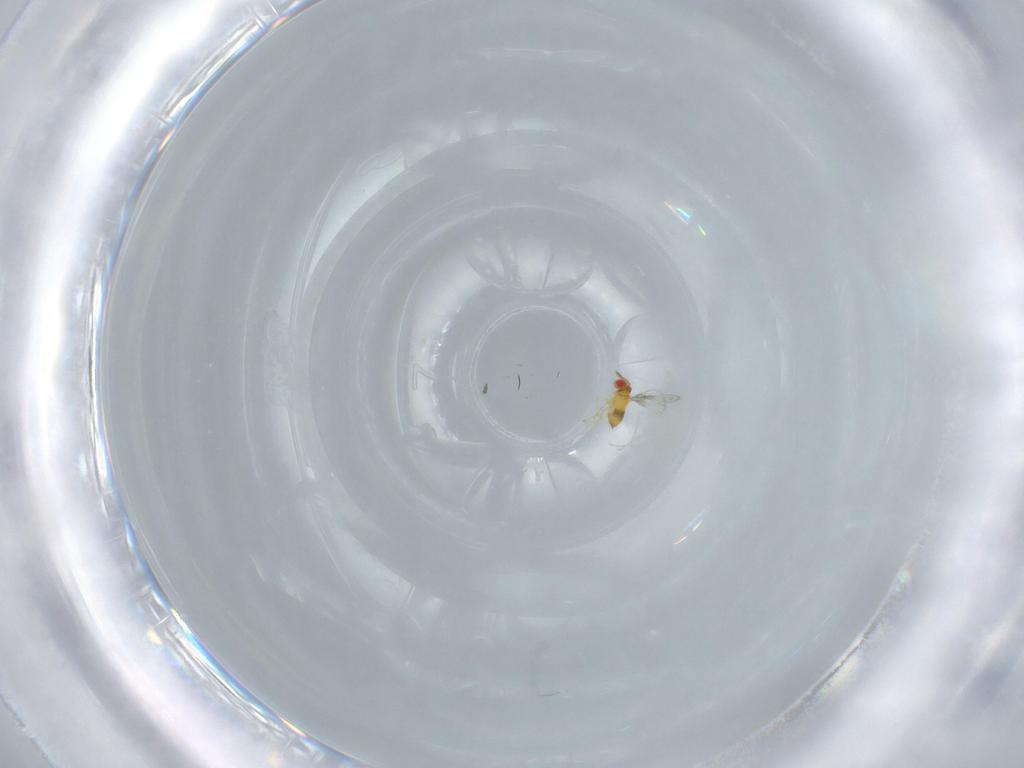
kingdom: Animalia
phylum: Arthropoda
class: Insecta
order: Hymenoptera
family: Trichogrammatidae
